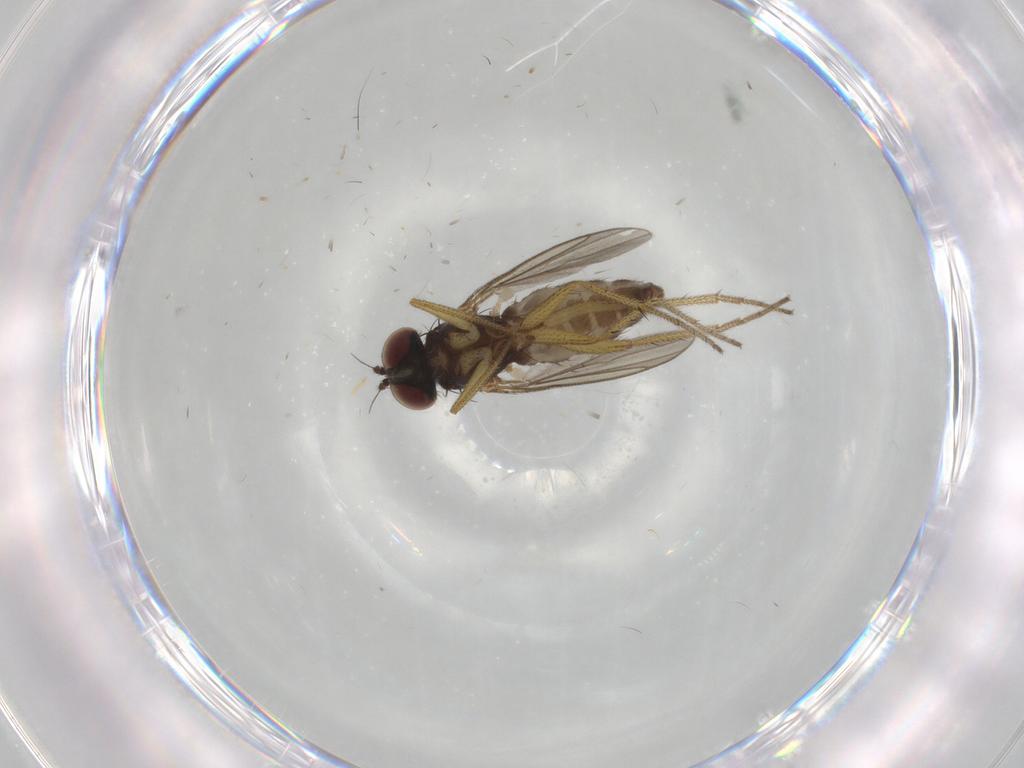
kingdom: Animalia
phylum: Arthropoda
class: Insecta
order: Diptera
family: Dolichopodidae
